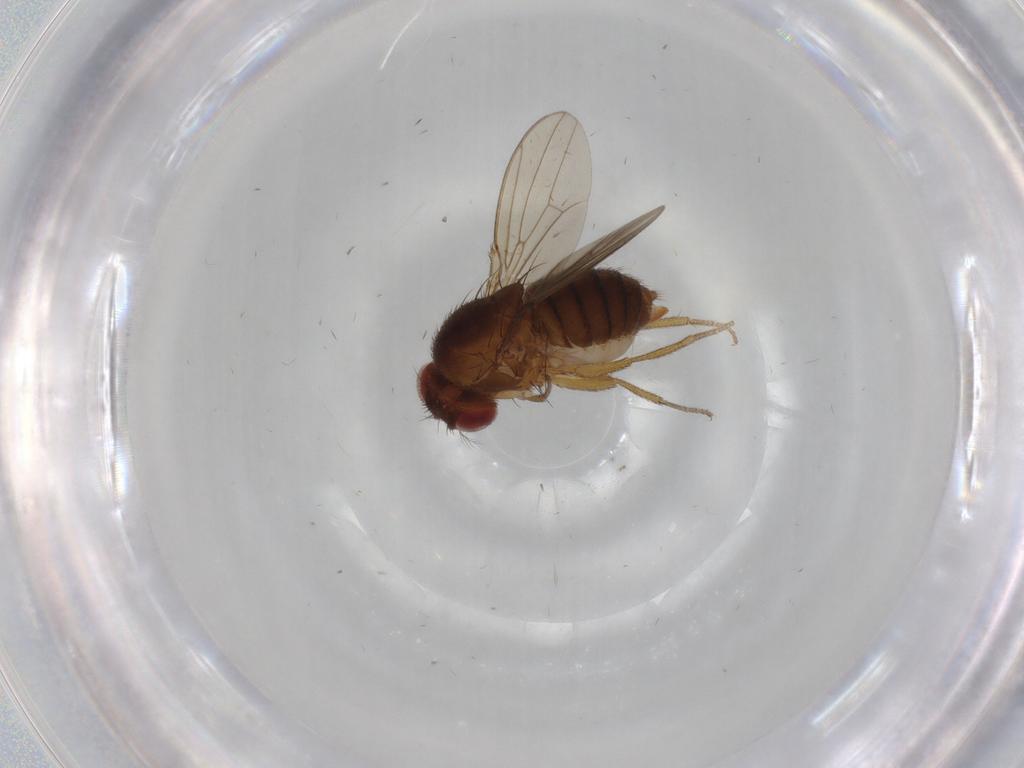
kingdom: Animalia
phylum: Arthropoda
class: Insecta
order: Diptera
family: Drosophilidae
